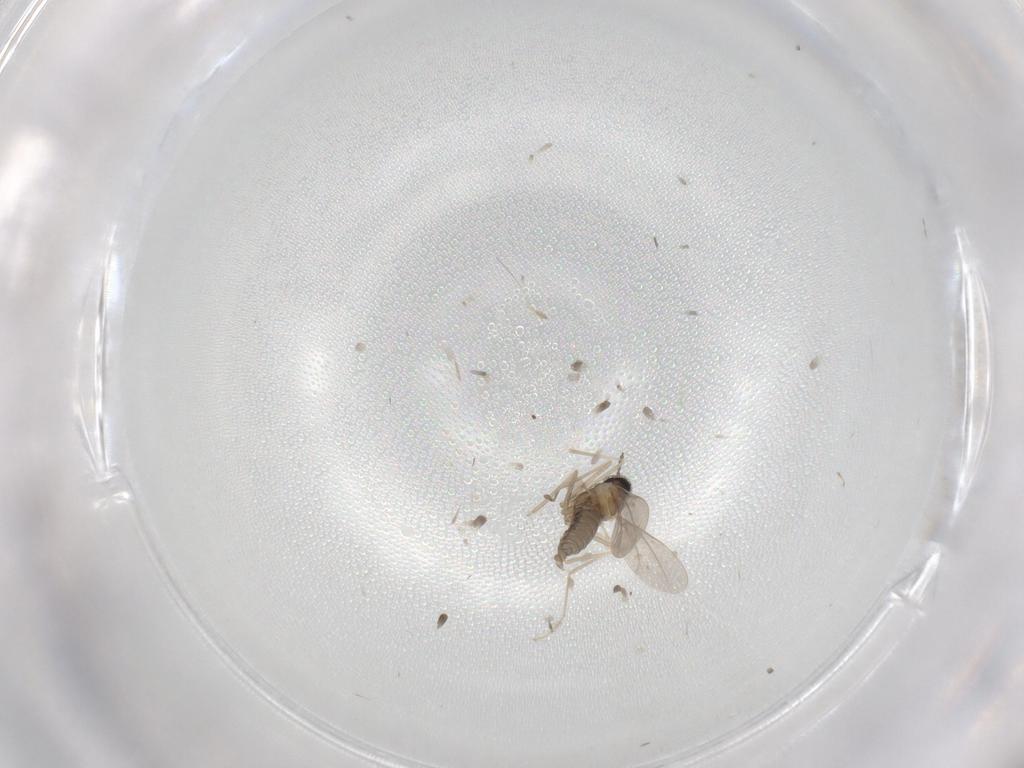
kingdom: Animalia
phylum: Arthropoda
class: Insecta
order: Diptera
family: Cecidomyiidae
